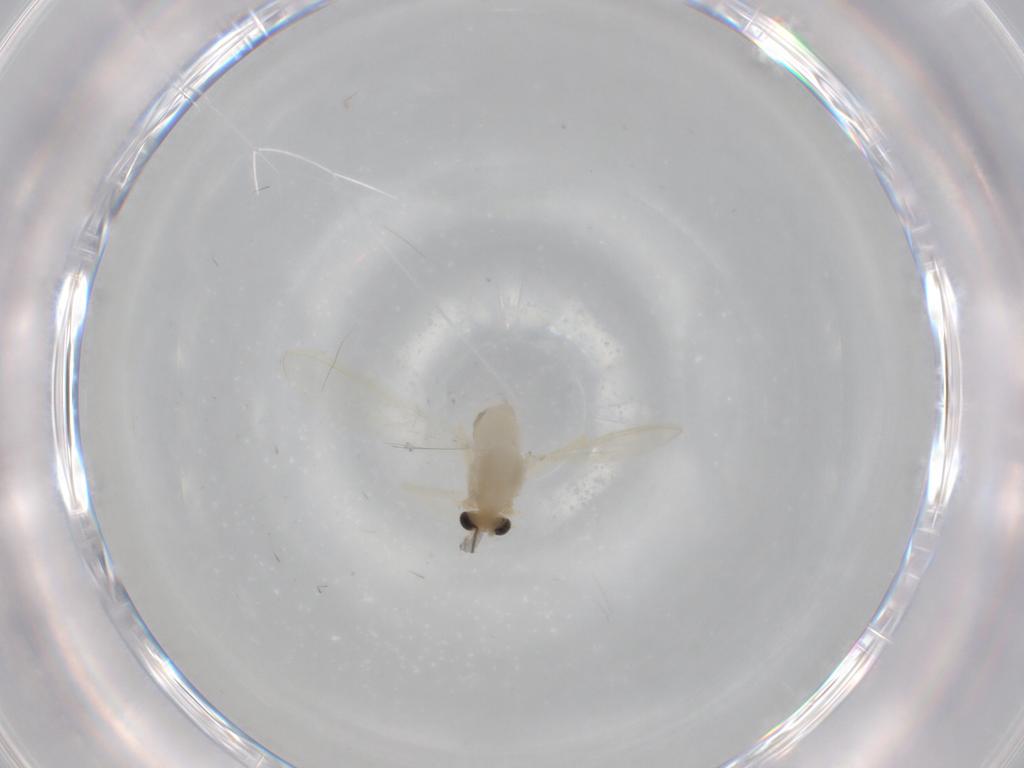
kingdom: Animalia
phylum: Arthropoda
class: Insecta
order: Diptera
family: Chironomidae
